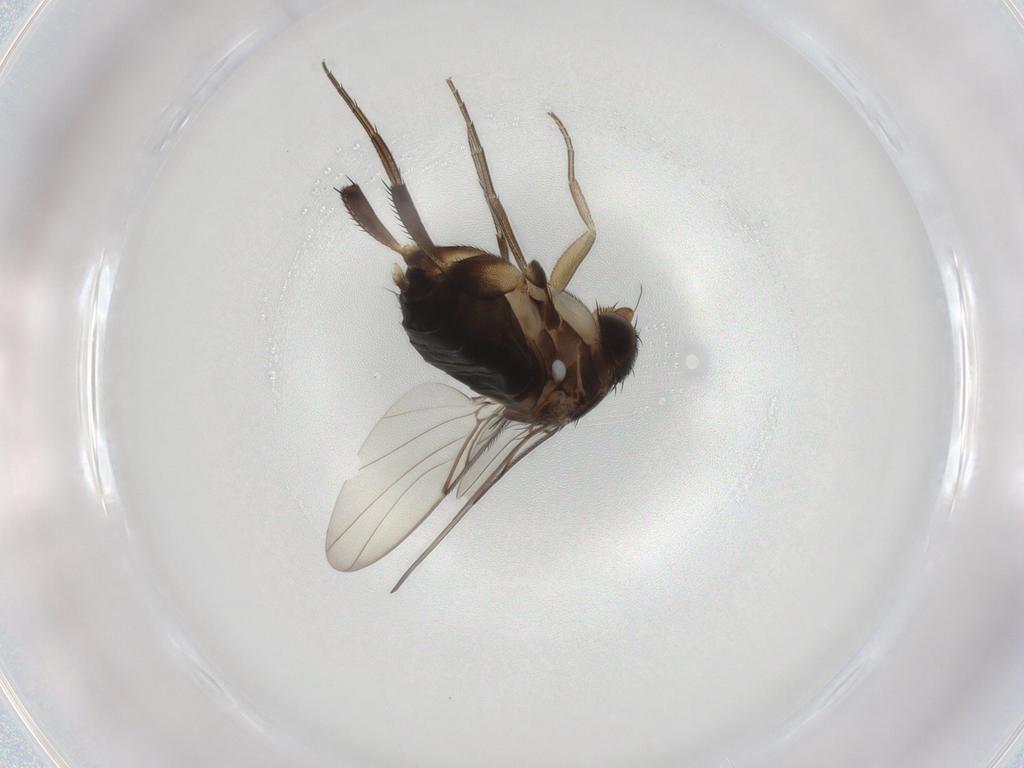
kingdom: Animalia
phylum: Arthropoda
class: Insecta
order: Diptera
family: Phoridae
